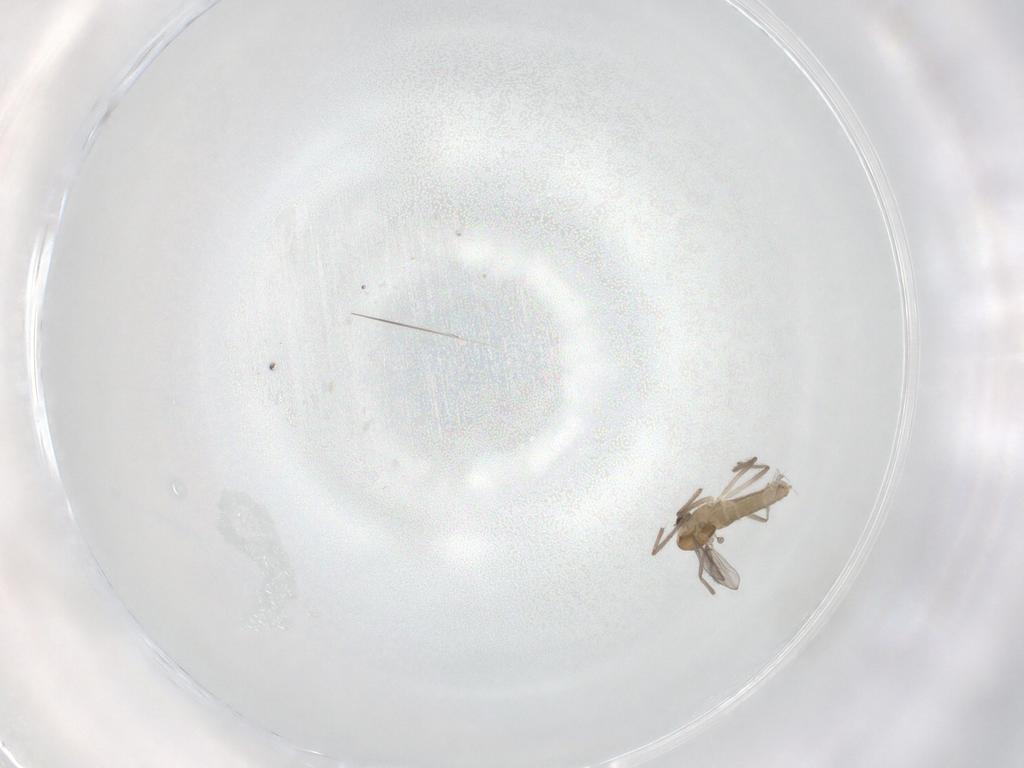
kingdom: Animalia
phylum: Arthropoda
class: Insecta
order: Diptera
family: Chironomidae
